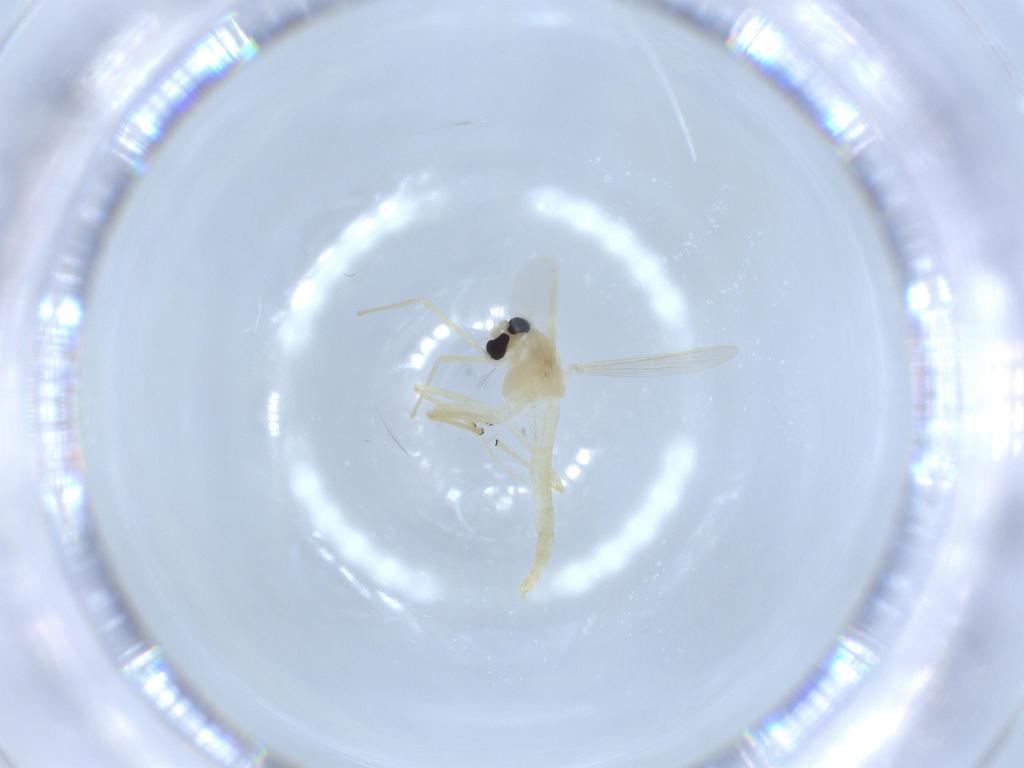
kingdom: Animalia
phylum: Arthropoda
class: Insecta
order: Diptera
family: Chironomidae
